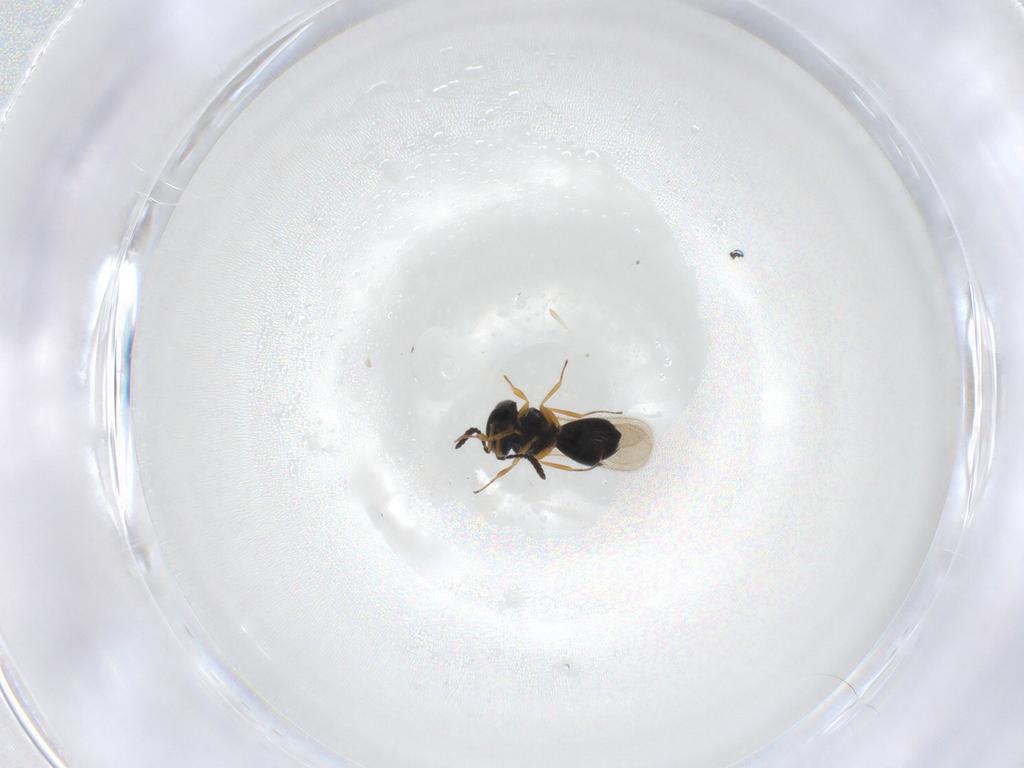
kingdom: Animalia
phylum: Arthropoda
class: Insecta
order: Hymenoptera
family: Scelionidae
